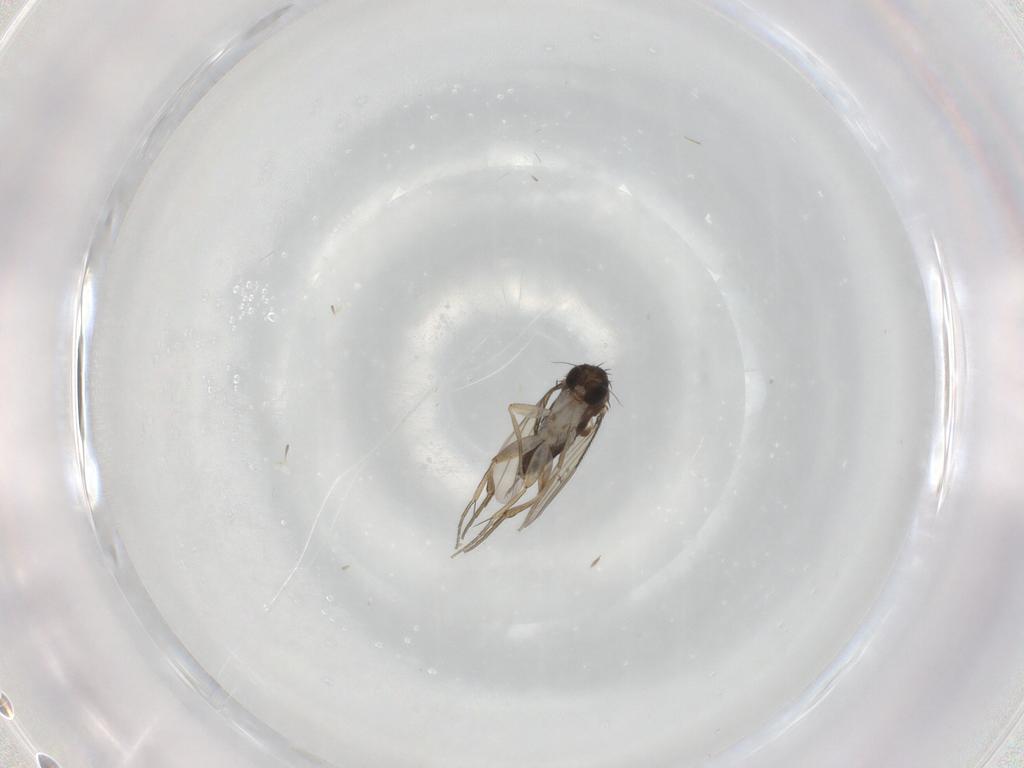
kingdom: Animalia
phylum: Arthropoda
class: Insecta
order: Diptera
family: Phoridae
